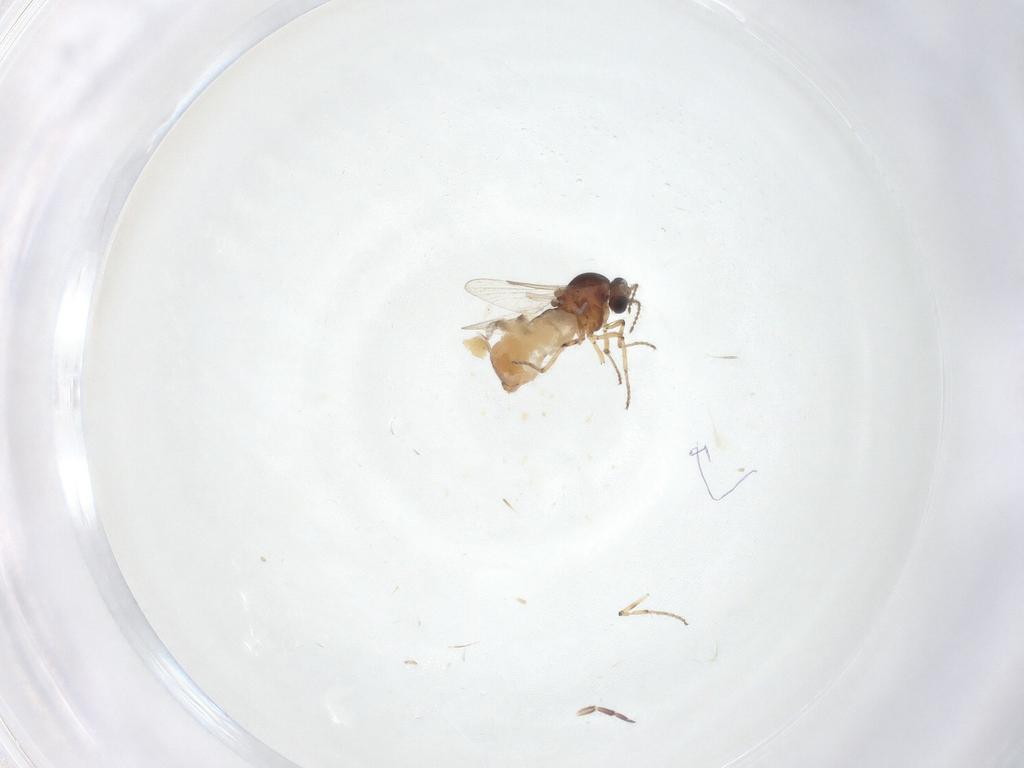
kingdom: Animalia
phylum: Arthropoda
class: Insecta
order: Diptera
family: Ceratopogonidae
